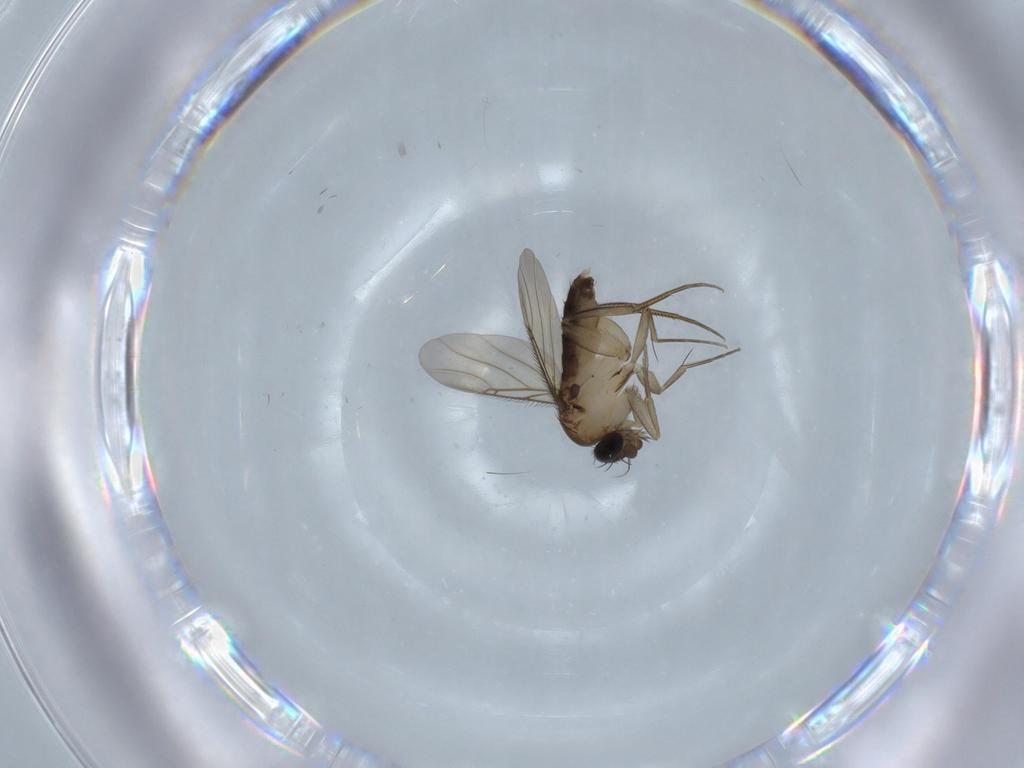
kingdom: Animalia
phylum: Arthropoda
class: Insecta
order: Diptera
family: Phoridae
